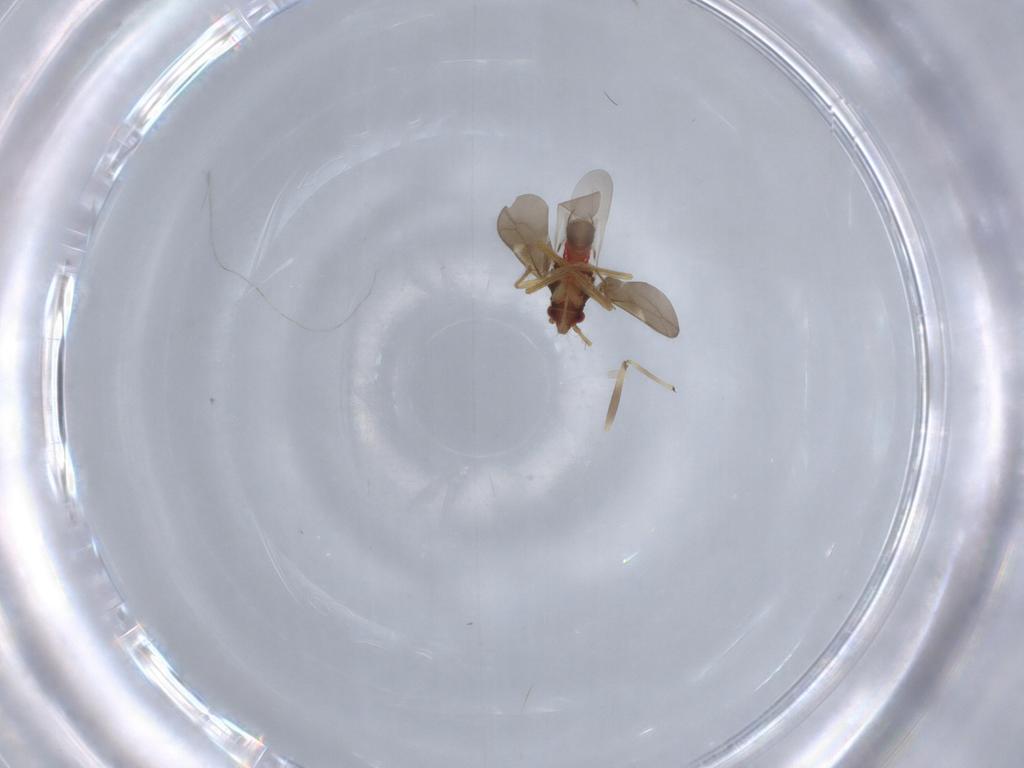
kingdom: Animalia
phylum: Arthropoda
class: Insecta
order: Hemiptera
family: Ceratocombidae
